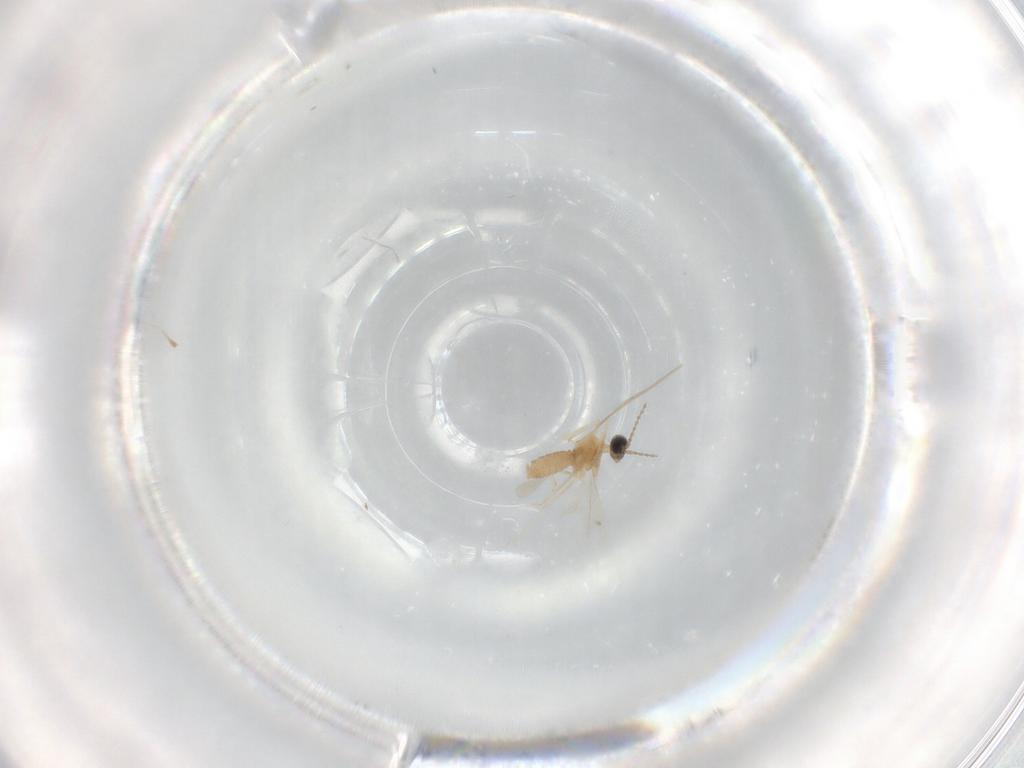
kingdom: Animalia
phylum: Arthropoda
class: Insecta
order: Diptera
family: Cecidomyiidae
